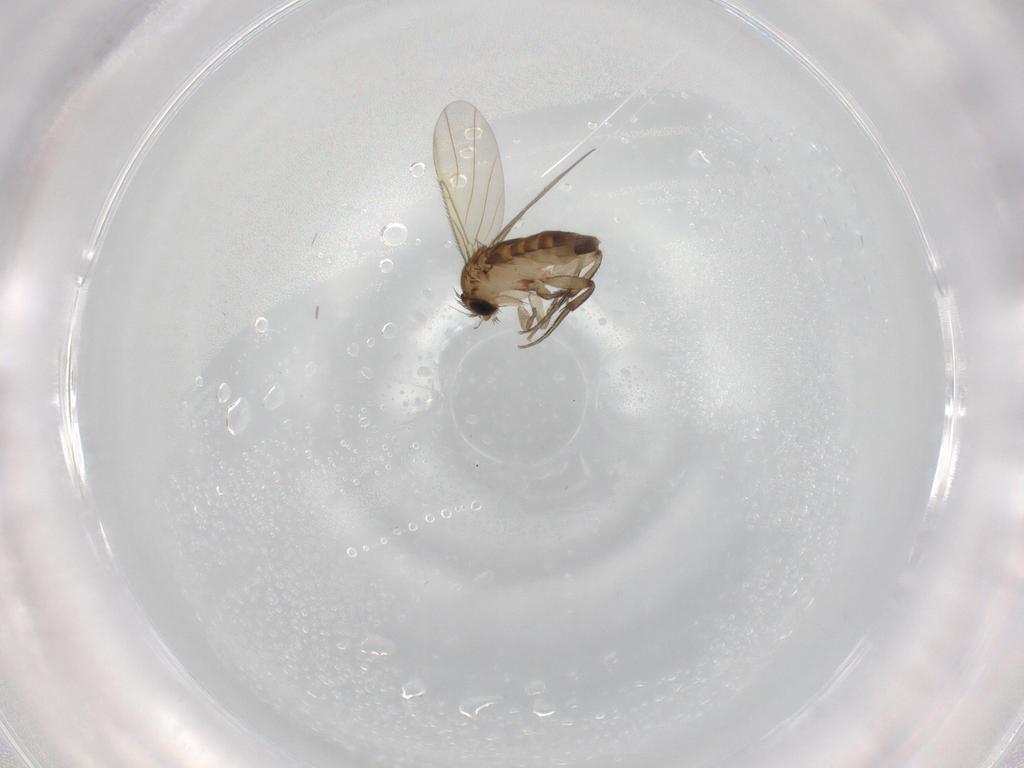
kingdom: Animalia
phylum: Arthropoda
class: Insecta
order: Diptera
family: Phoridae
